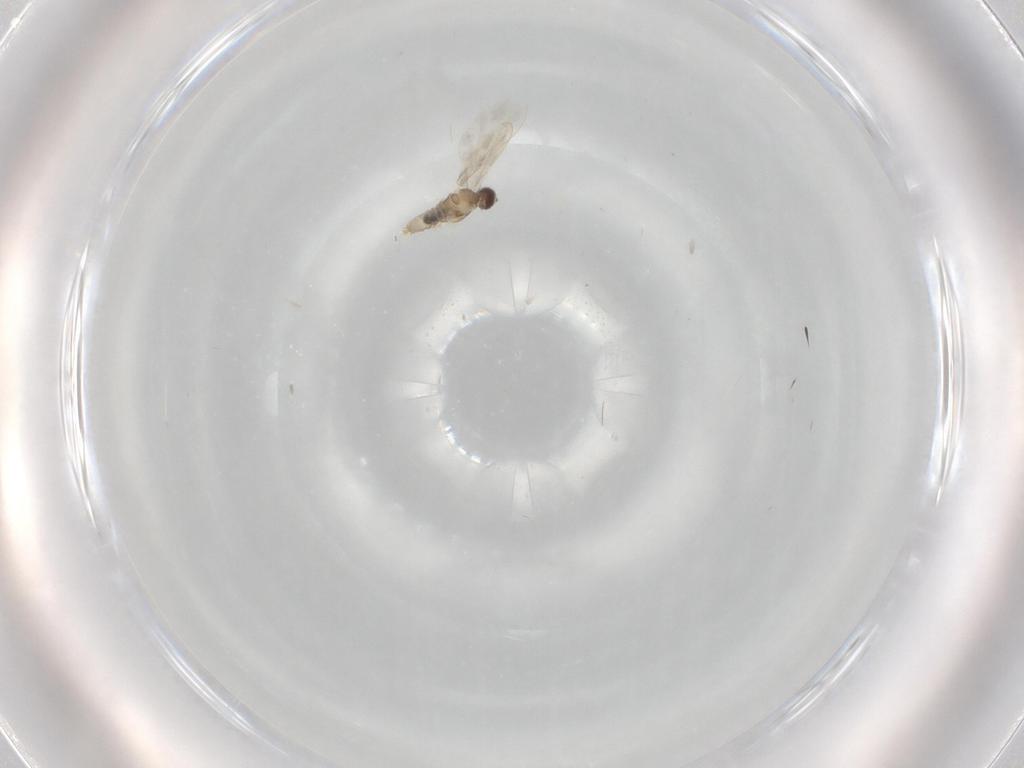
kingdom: Animalia
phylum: Arthropoda
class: Insecta
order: Diptera
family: Cecidomyiidae
